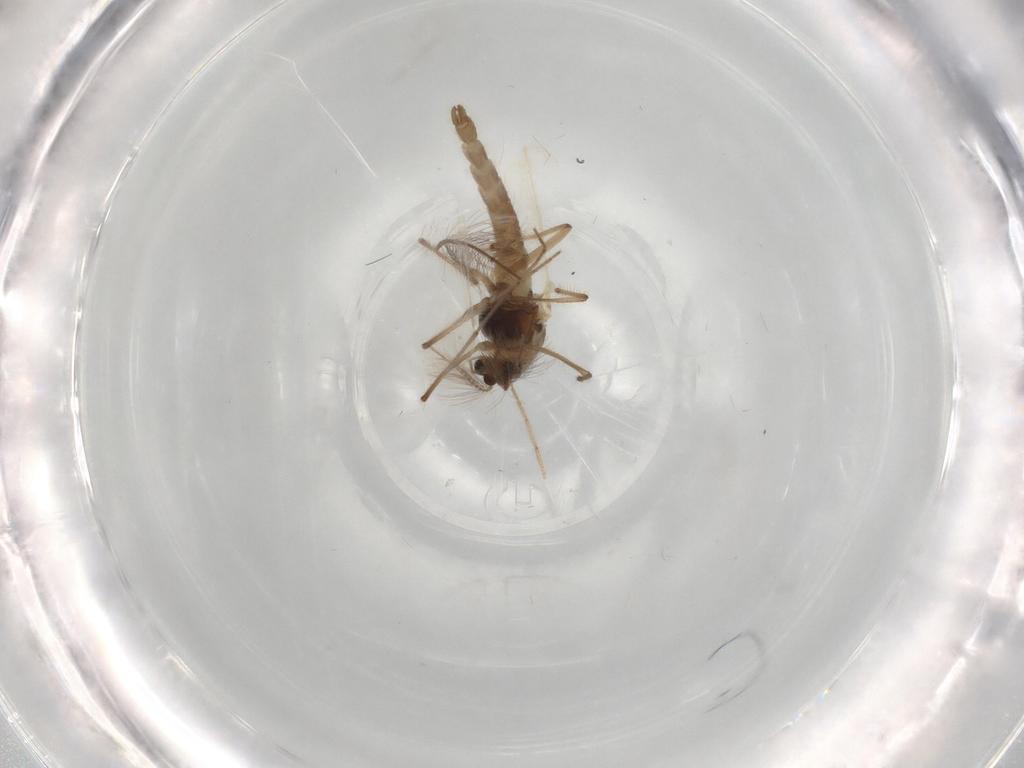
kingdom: Animalia
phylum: Arthropoda
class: Insecta
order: Diptera
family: Chironomidae
